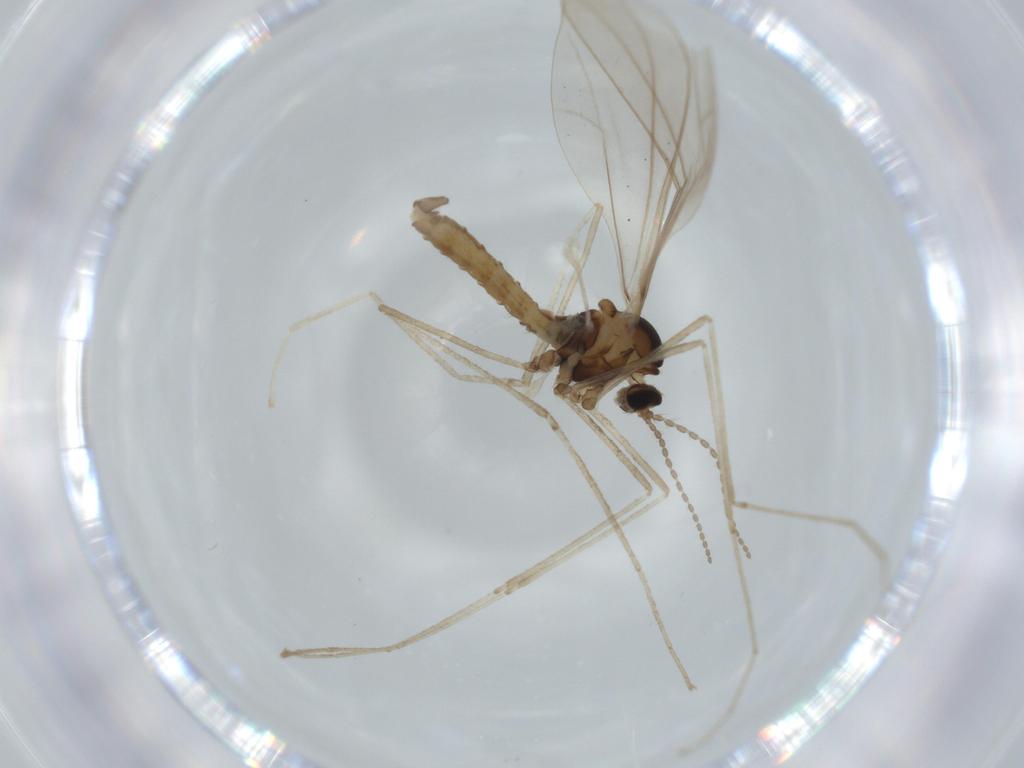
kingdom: Animalia
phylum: Arthropoda
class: Insecta
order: Diptera
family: Cecidomyiidae
